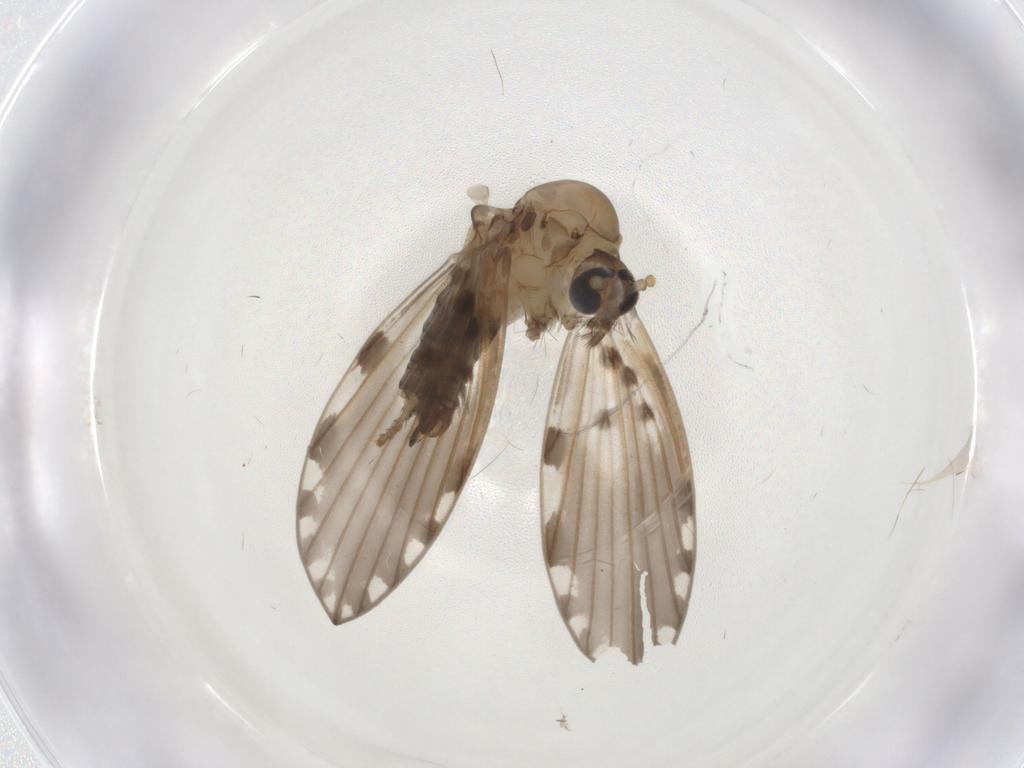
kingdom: Animalia
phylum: Arthropoda
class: Insecta
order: Diptera
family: Psychodidae
